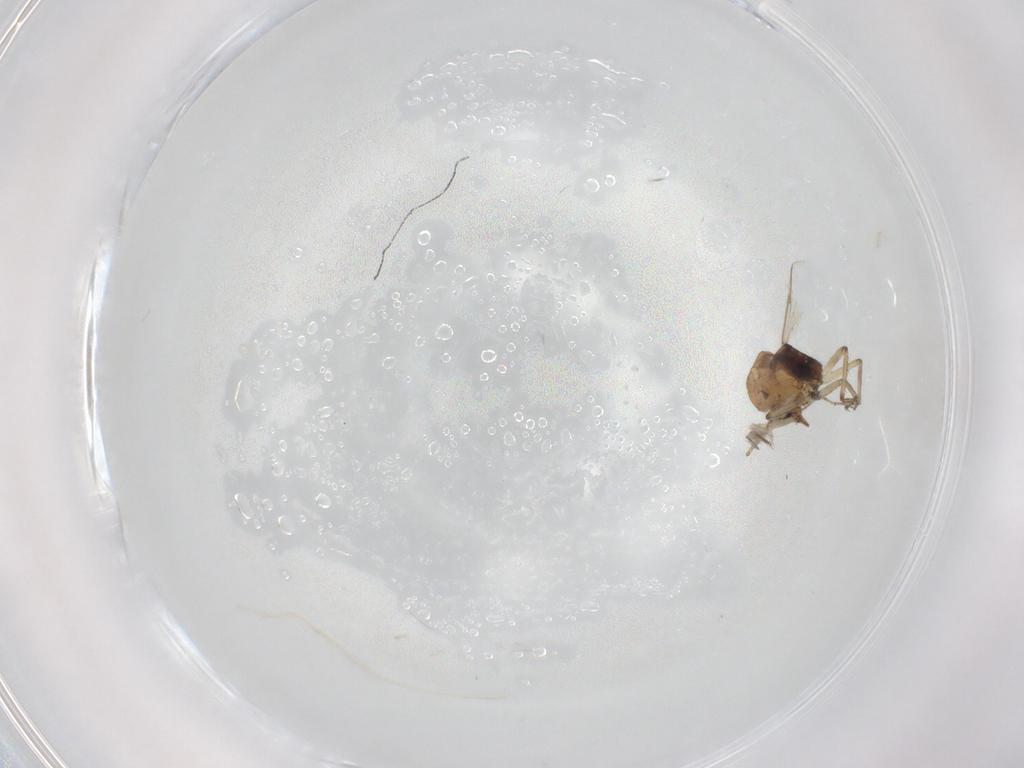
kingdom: Animalia
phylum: Arthropoda
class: Insecta
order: Diptera
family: Ceratopogonidae
